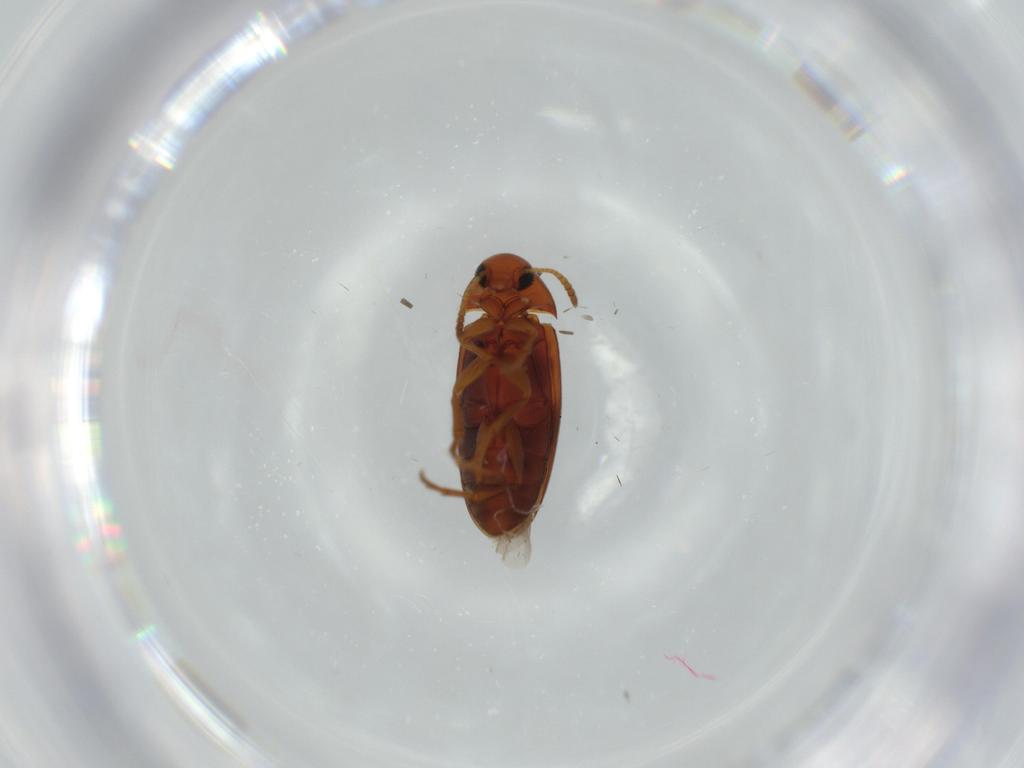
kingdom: Animalia
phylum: Arthropoda
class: Insecta
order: Coleoptera
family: Scraptiidae
